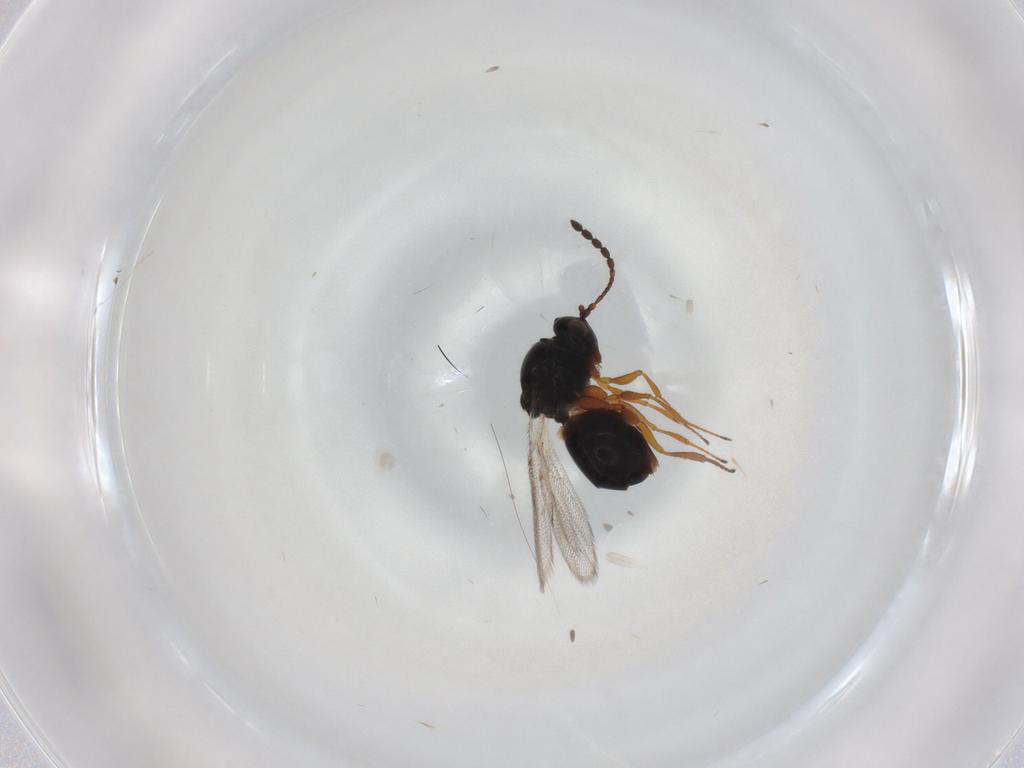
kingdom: Animalia
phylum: Arthropoda
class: Insecta
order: Hymenoptera
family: Figitidae
